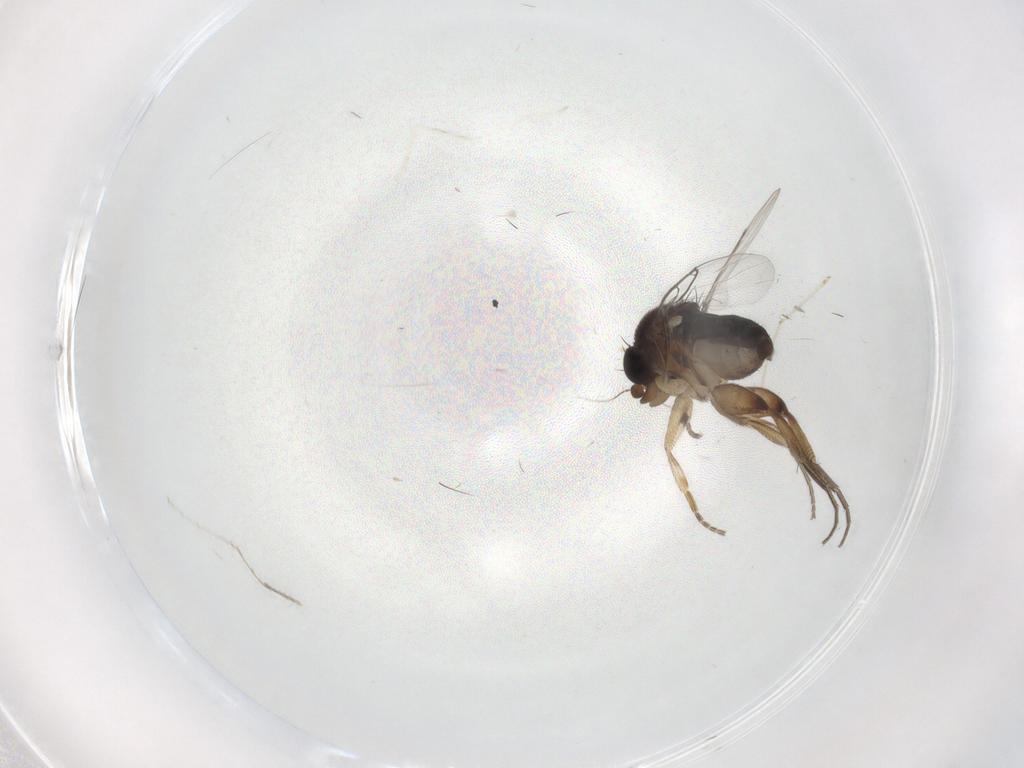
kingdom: Animalia
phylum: Arthropoda
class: Insecta
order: Diptera
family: Phoridae
